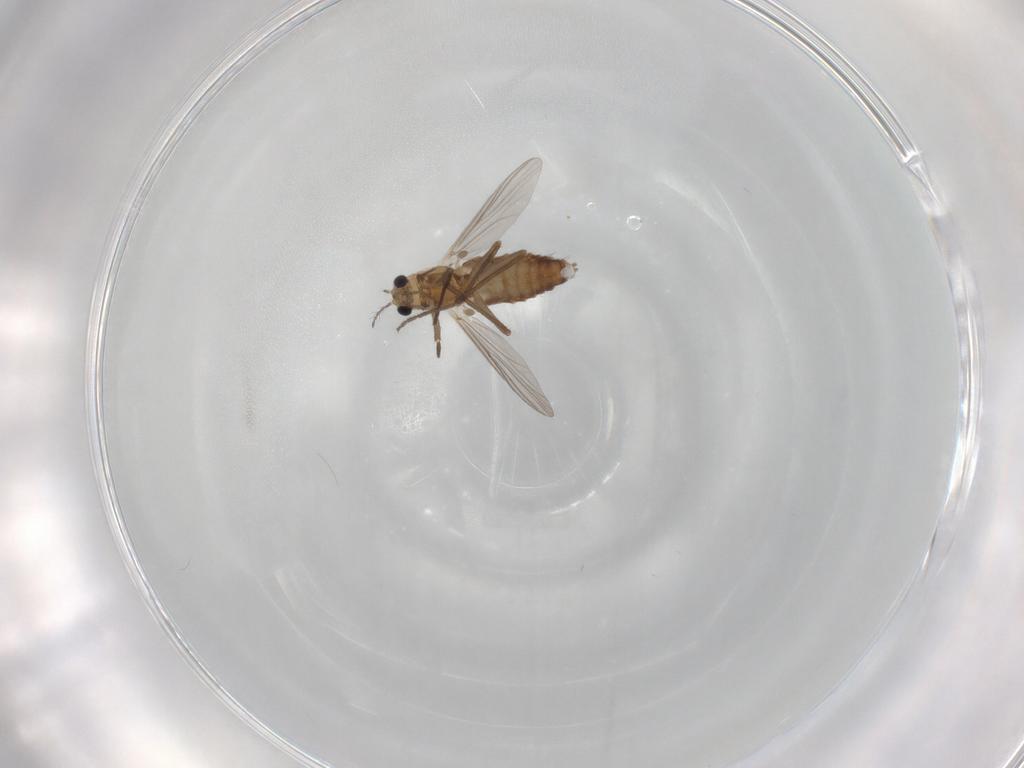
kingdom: Animalia
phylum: Arthropoda
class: Insecta
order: Diptera
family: Chironomidae
